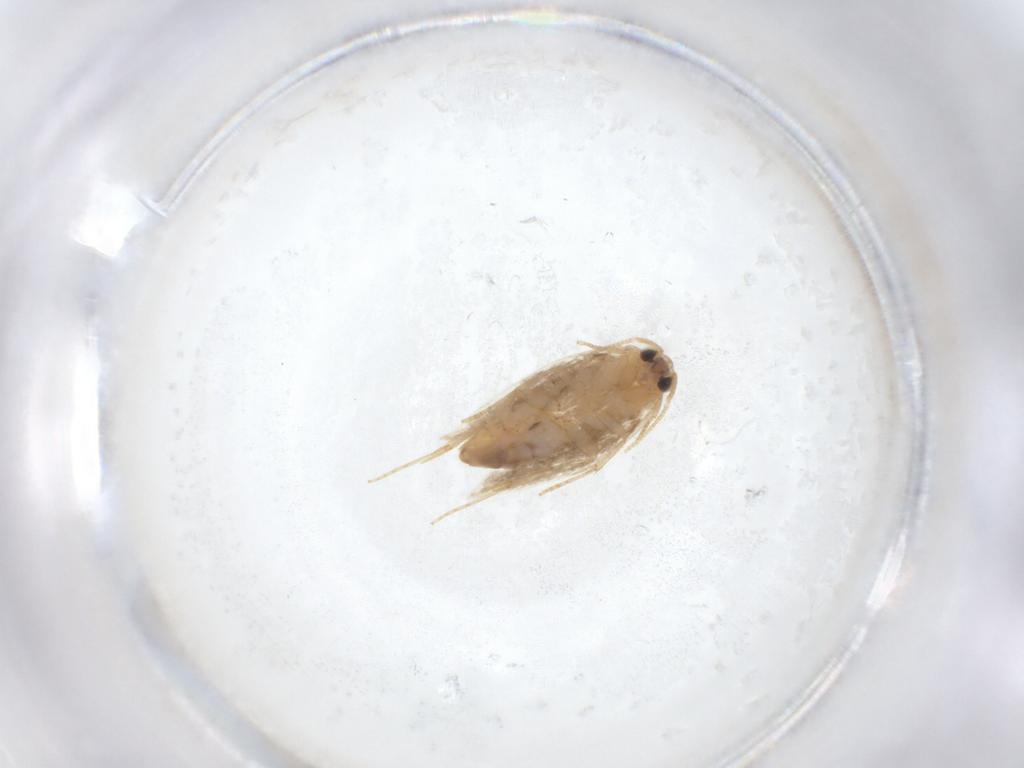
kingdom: Animalia
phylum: Arthropoda
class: Insecta
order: Lepidoptera
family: Nepticulidae
